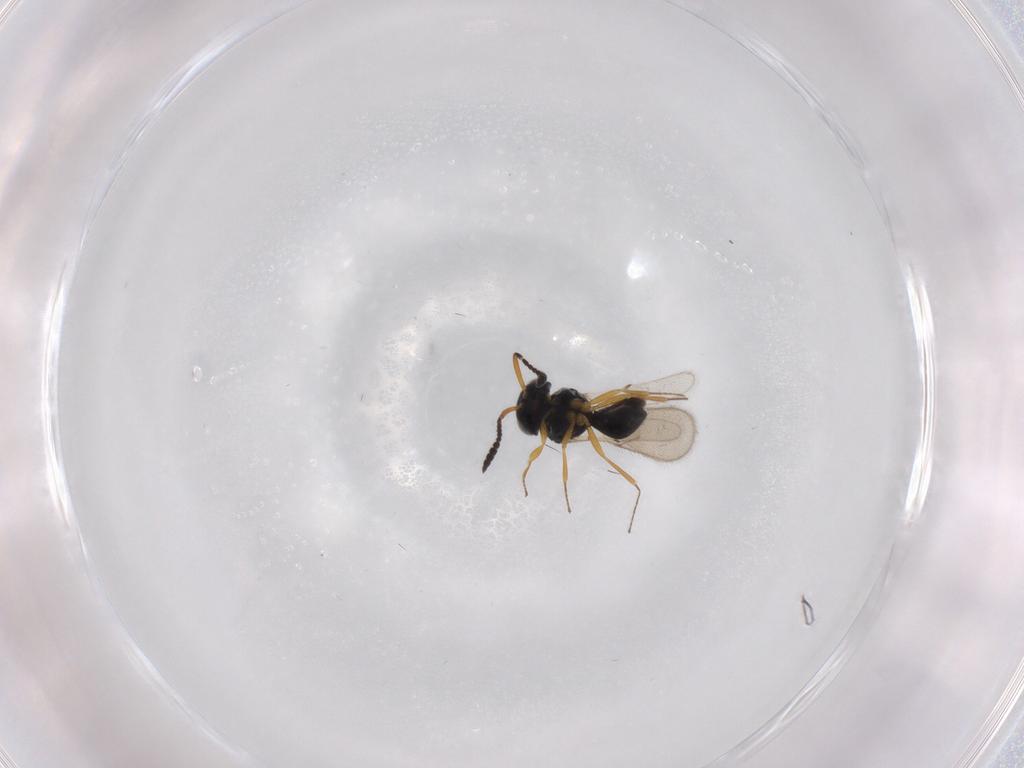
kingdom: Animalia
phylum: Arthropoda
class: Insecta
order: Hymenoptera
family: Scelionidae
